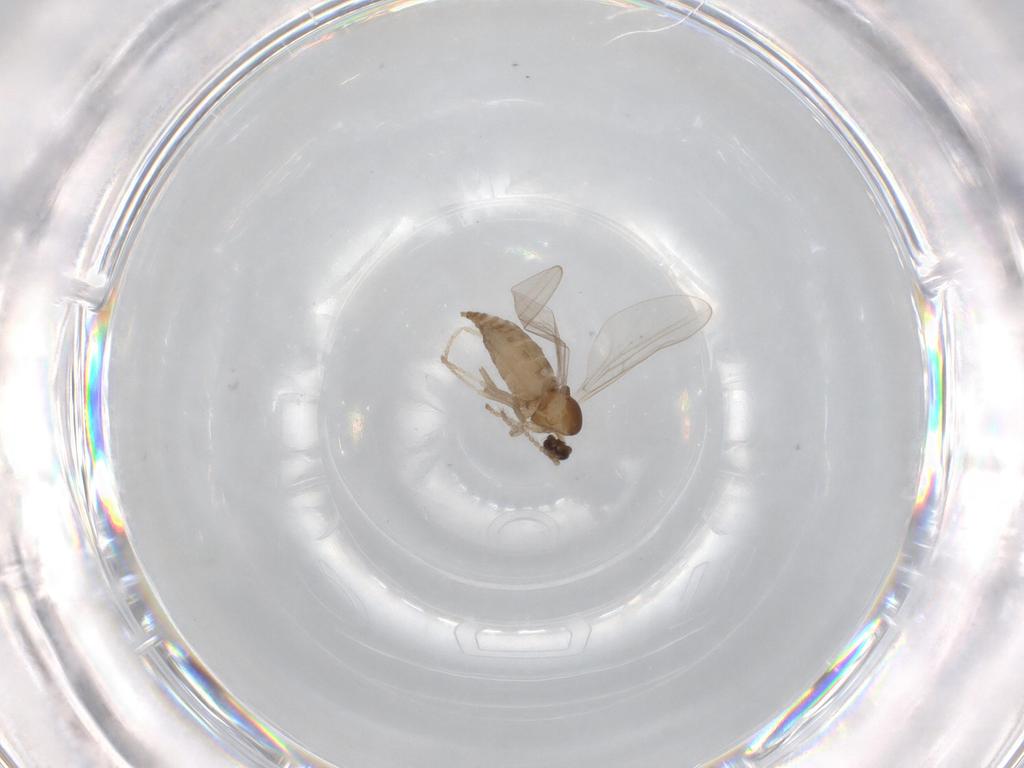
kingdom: Animalia
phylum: Arthropoda
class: Insecta
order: Diptera
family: Cecidomyiidae
